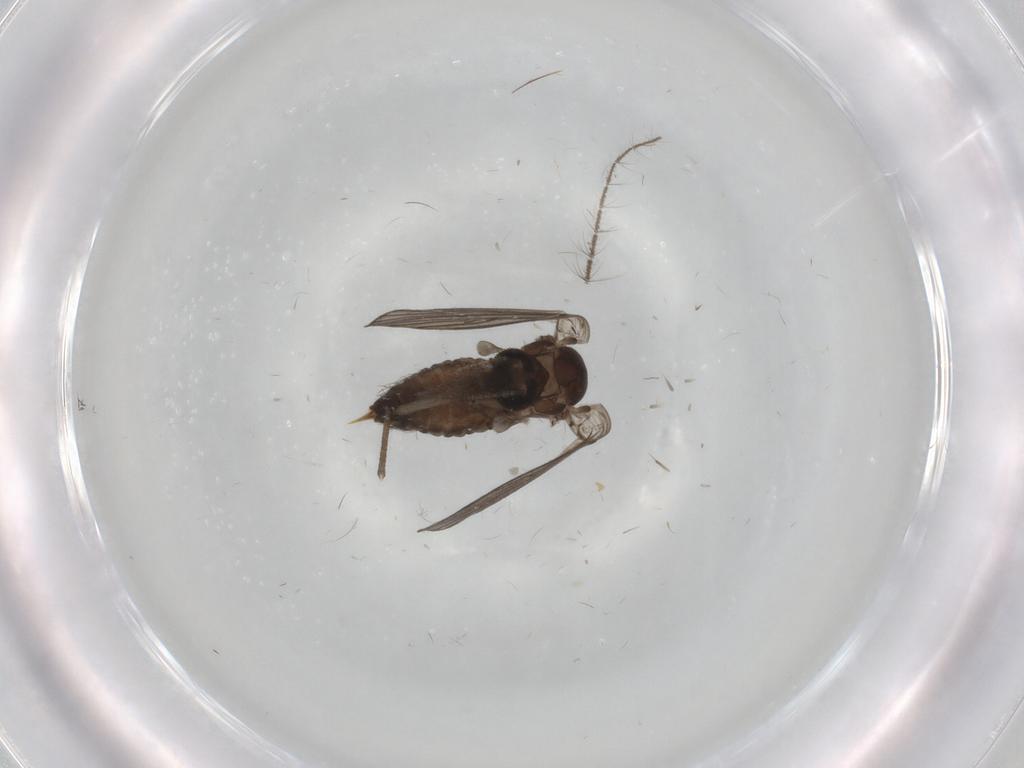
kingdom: Animalia
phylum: Arthropoda
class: Insecta
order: Diptera
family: Psychodidae
